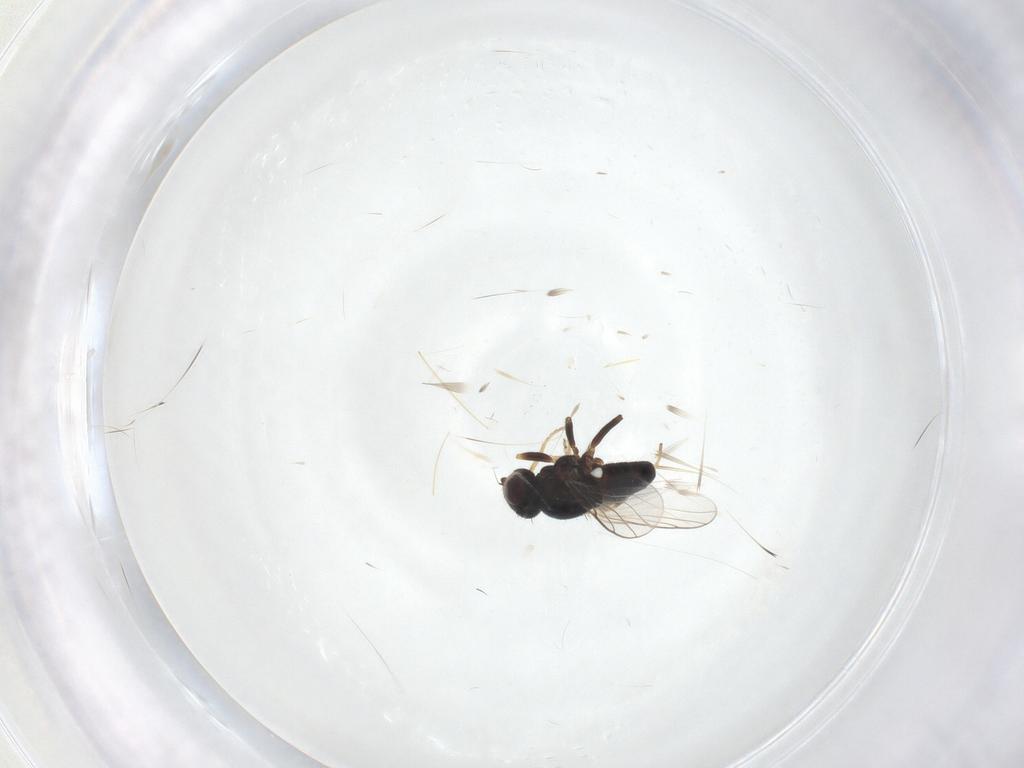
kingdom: Animalia
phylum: Arthropoda
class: Insecta
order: Diptera
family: Chloropidae
